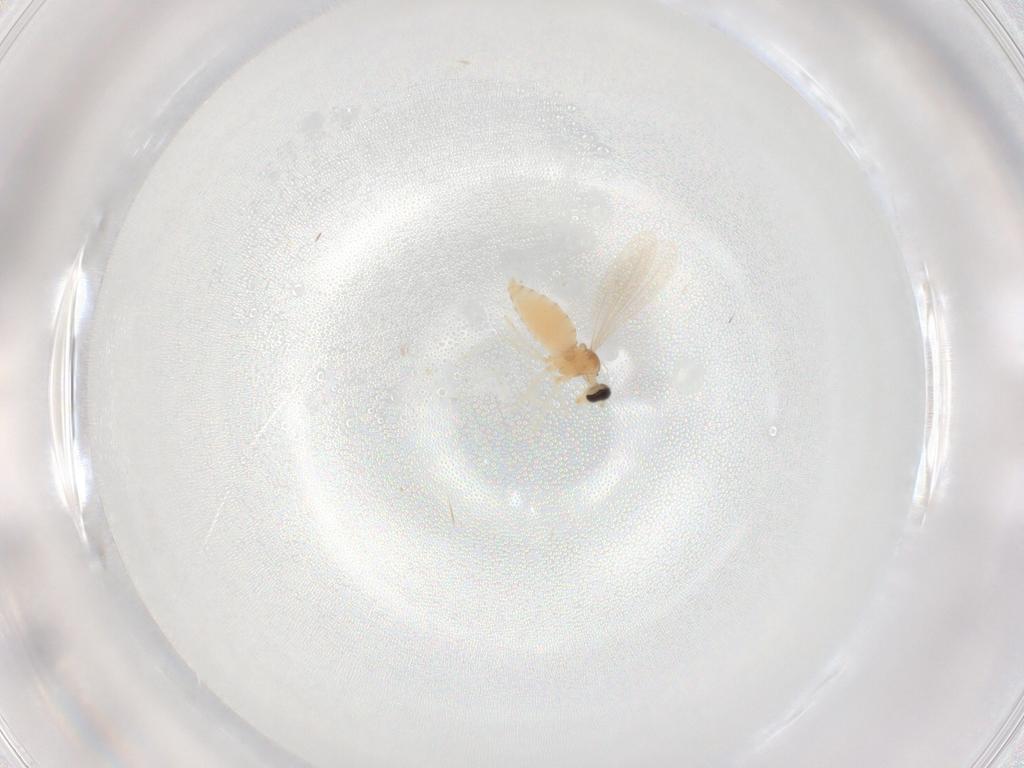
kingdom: Animalia
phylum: Arthropoda
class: Insecta
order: Diptera
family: Cecidomyiidae
